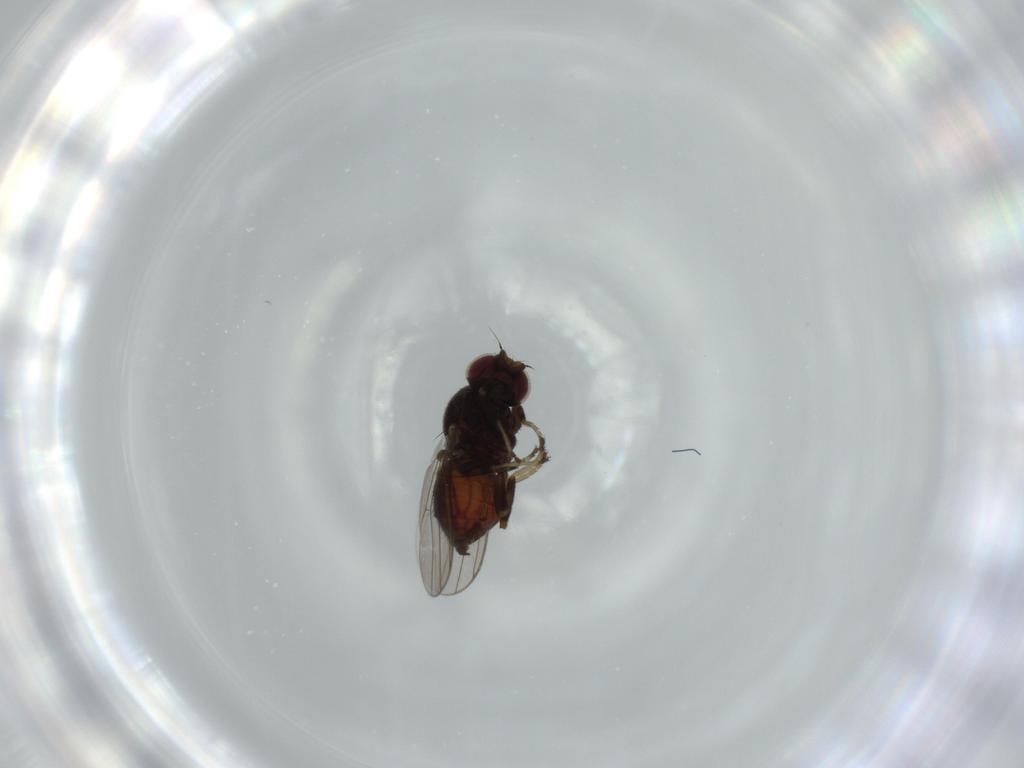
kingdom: Animalia
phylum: Arthropoda
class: Insecta
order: Diptera
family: Chloropidae
